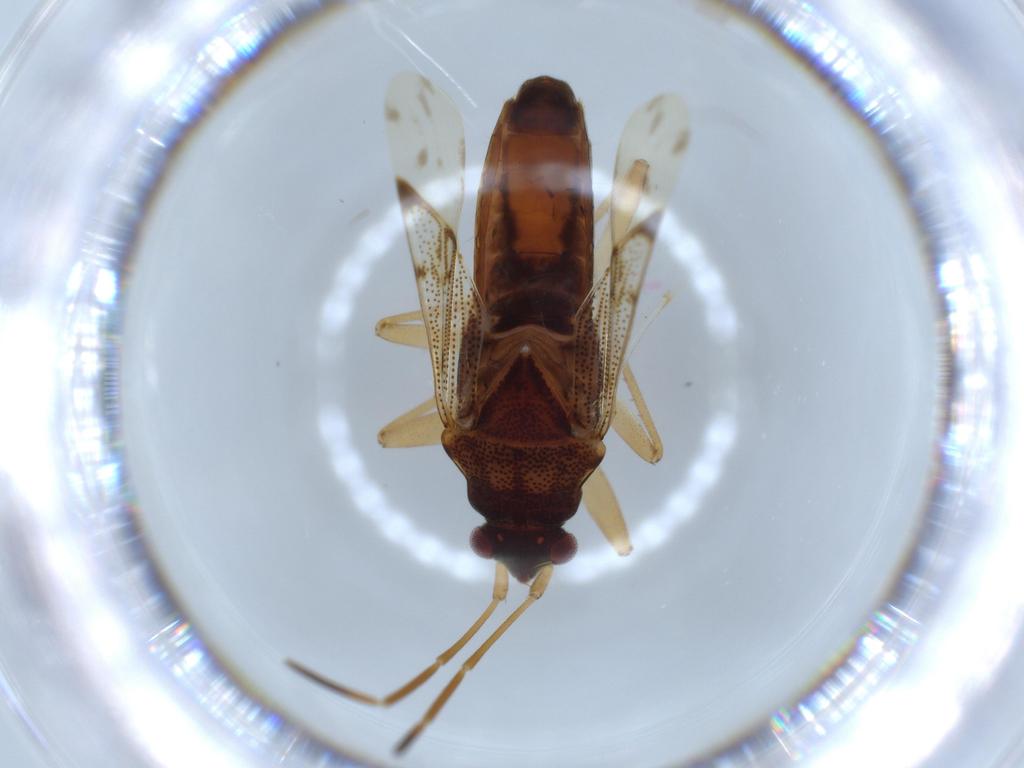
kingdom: Animalia
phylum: Arthropoda
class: Insecta
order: Hemiptera
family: Rhyparochromidae
